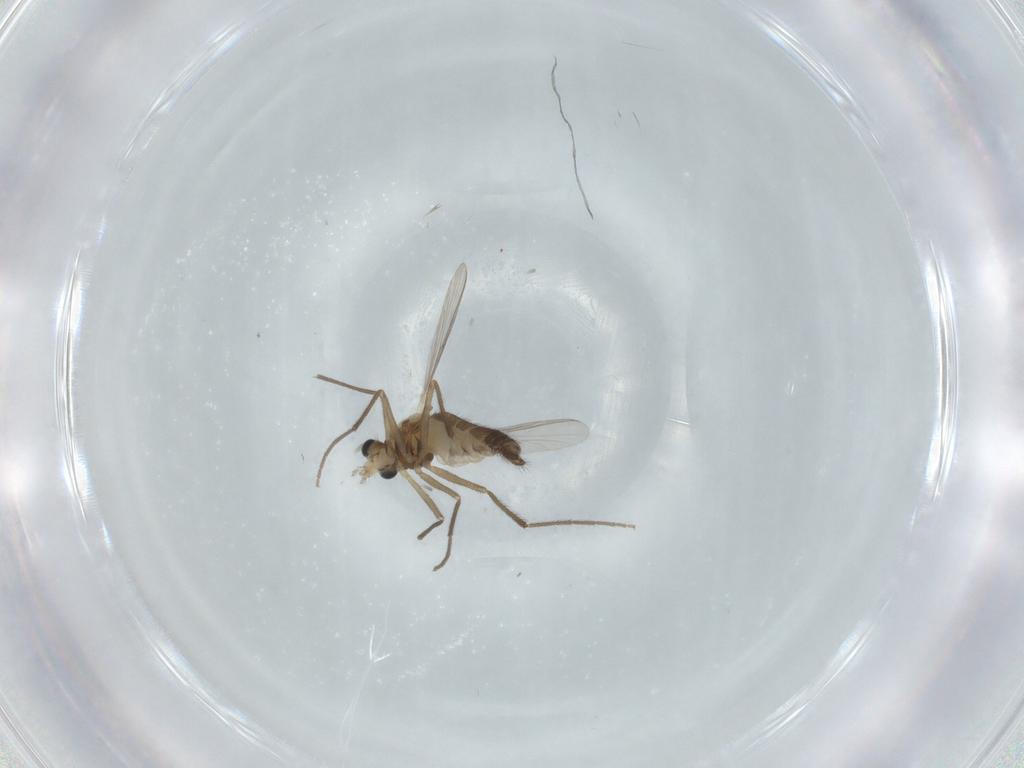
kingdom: Animalia
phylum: Arthropoda
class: Insecta
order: Diptera
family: Chironomidae
